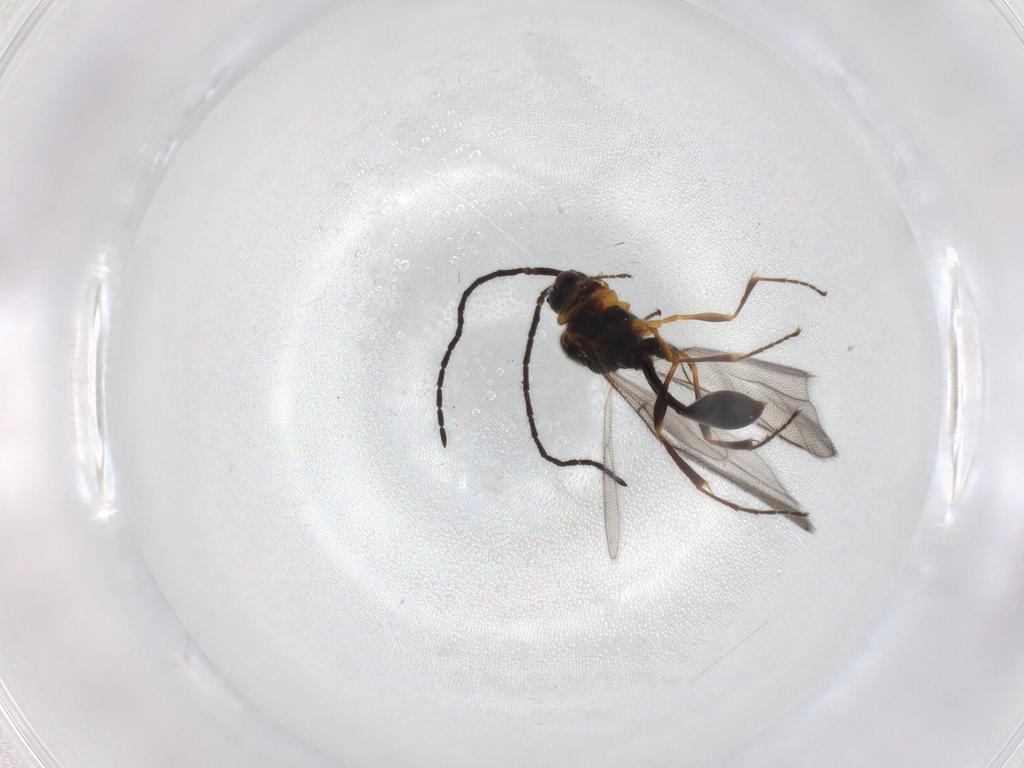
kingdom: Animalia
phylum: Arthropoda
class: Insecta
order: Hymenoptera
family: Diapriidae
